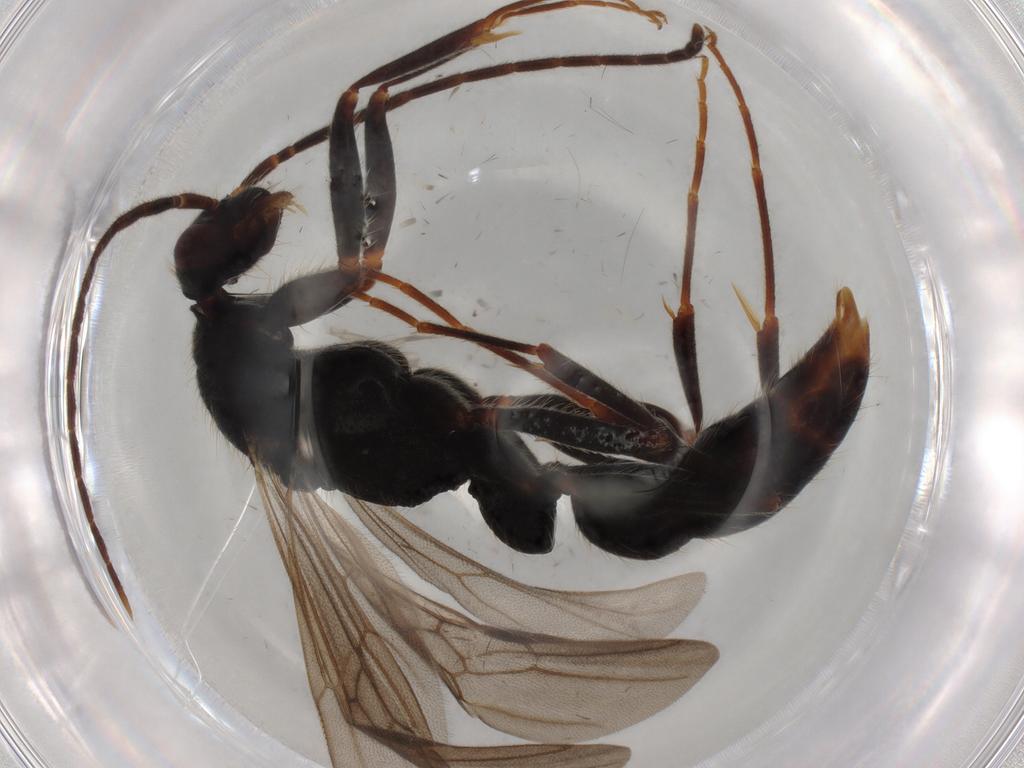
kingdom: Animalia
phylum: Arthropoda
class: Insecta
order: Hymenoptera
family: Formicidae
